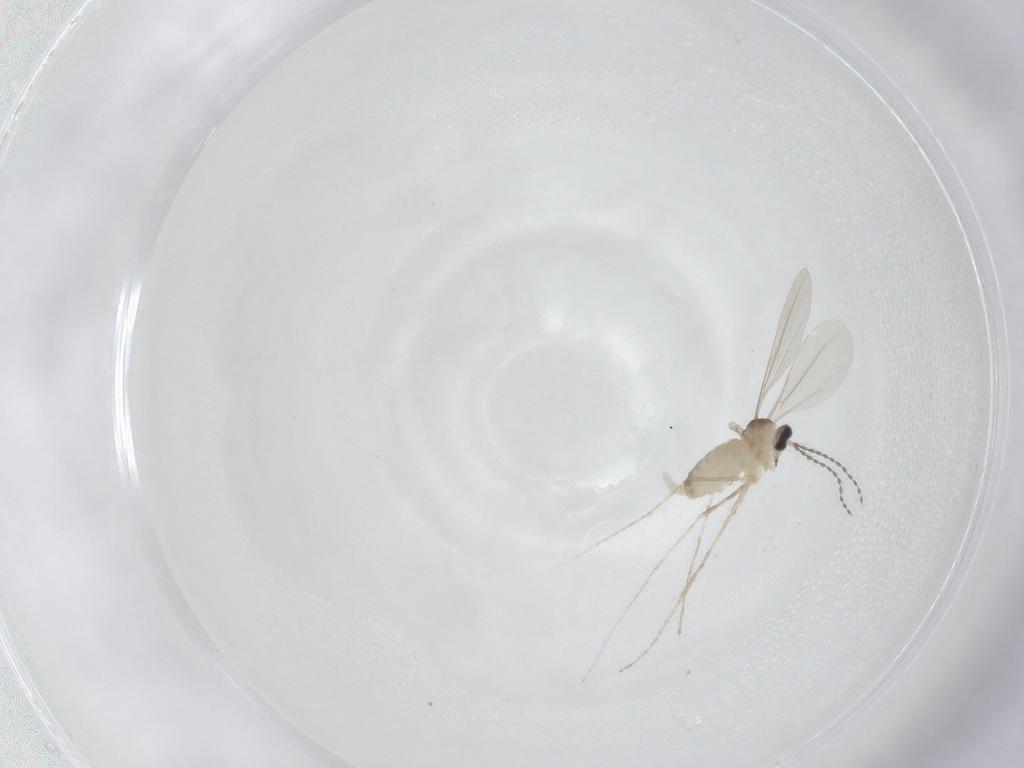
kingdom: Animalia
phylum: Arthropoda
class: Insecta
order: Diptera
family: Cecidomyiidae
